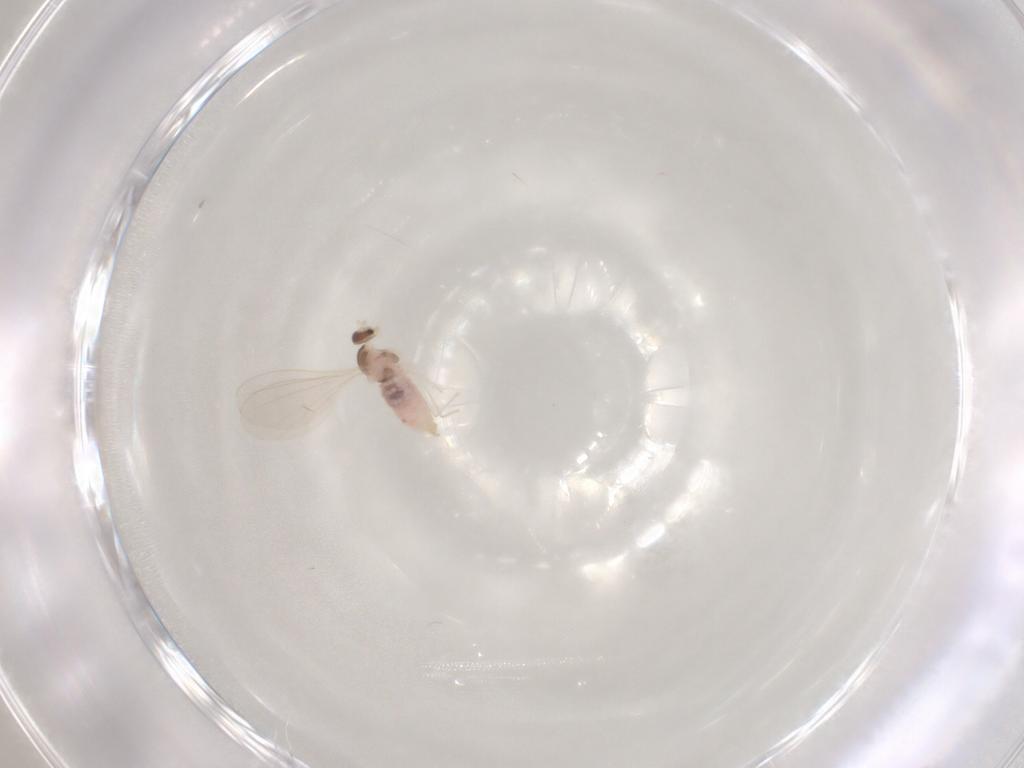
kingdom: Animalia
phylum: Arthropoda
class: Insecta
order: Diptera
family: Cecidomyiidae
